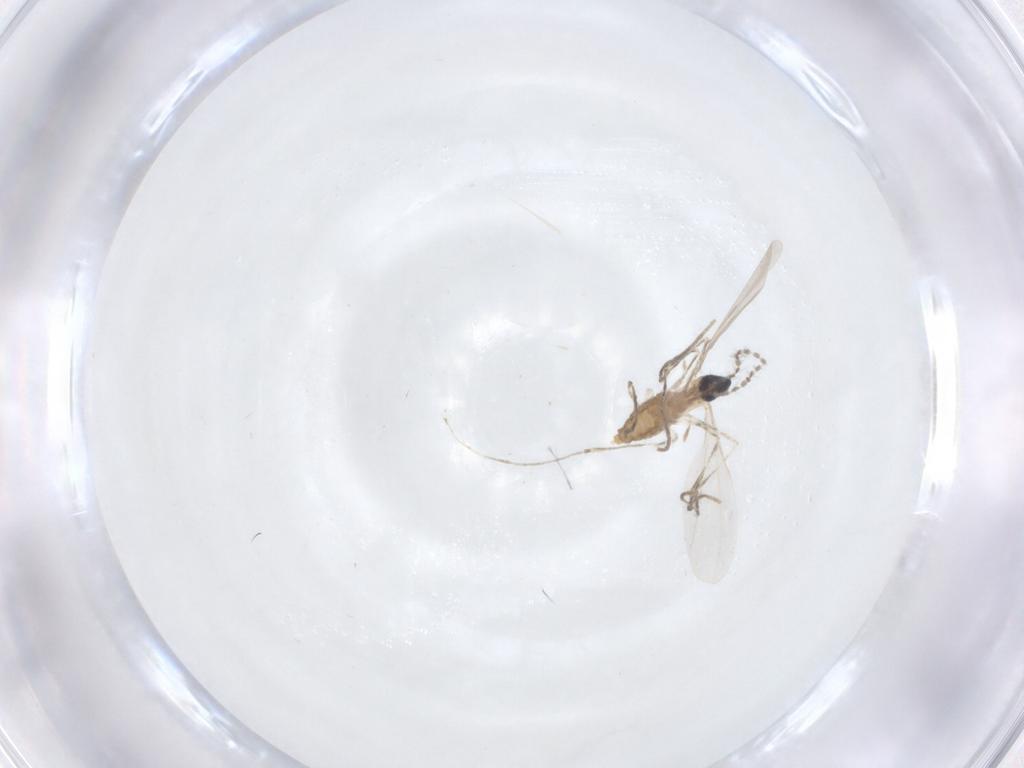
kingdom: Animalia
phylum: Arthropoda
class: Insecta
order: Diptera
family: Cecidomyiidae
